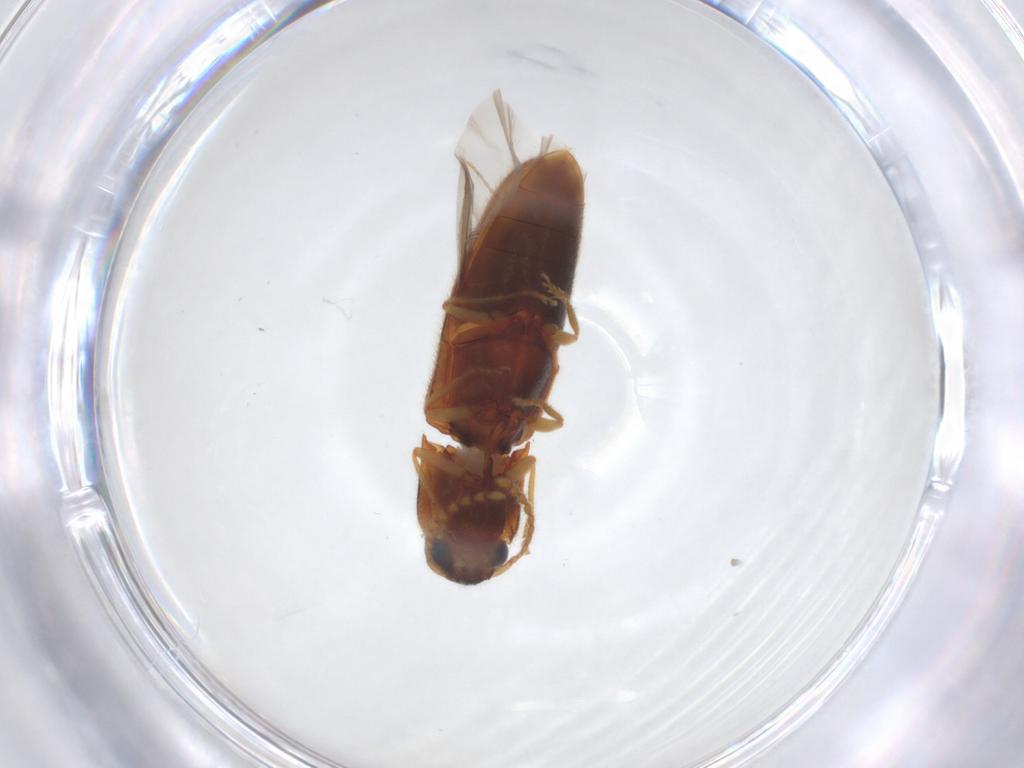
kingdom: Animalia
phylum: Arthropoda
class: Insecta
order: Coleoptera
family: Elateridae
